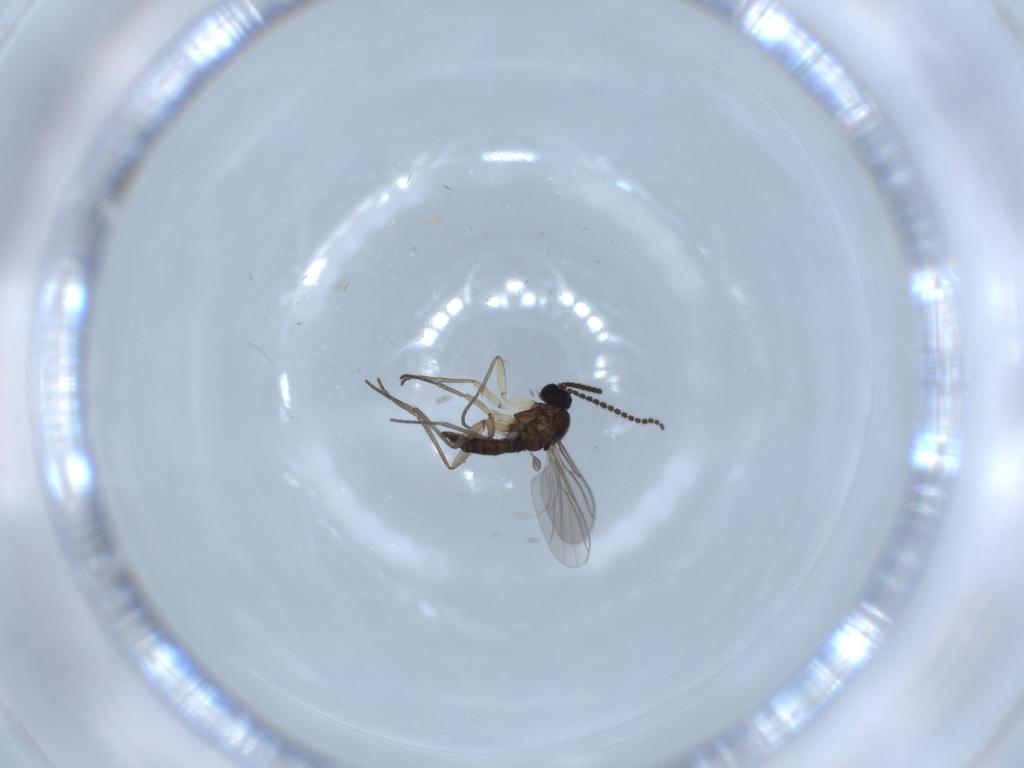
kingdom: Animalia
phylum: Arthropoda
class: Insecta
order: Diptera
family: Sciaridae
